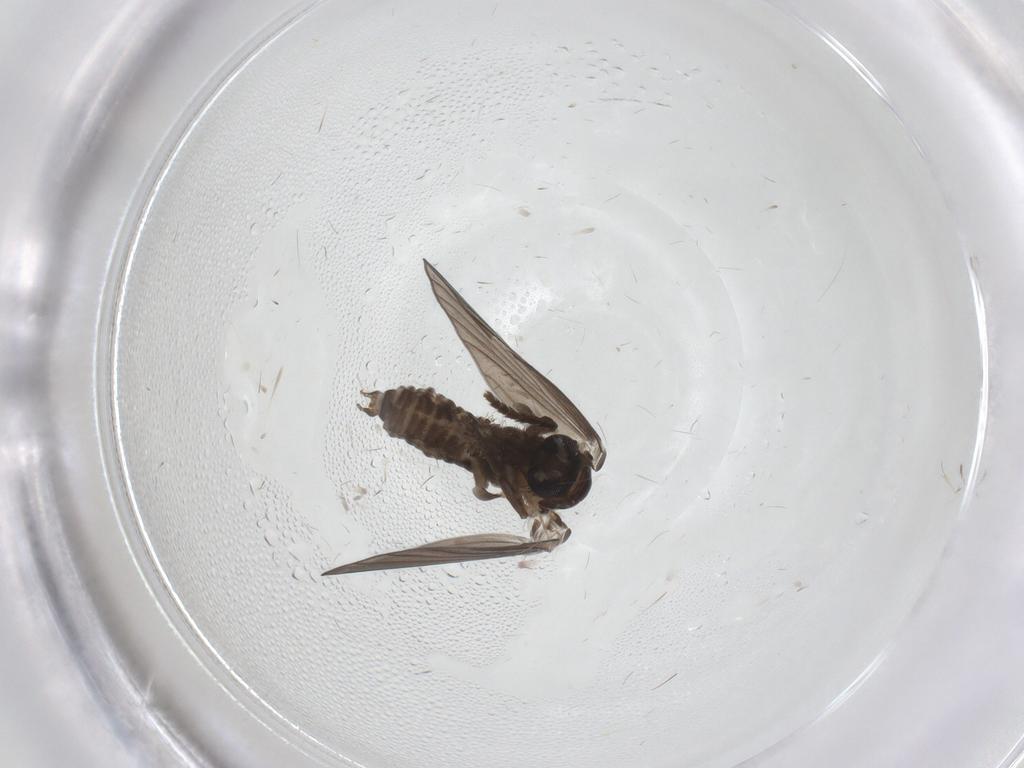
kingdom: Animalia
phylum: Arthropoda
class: Insecta
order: Diptera
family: Psychodidae
